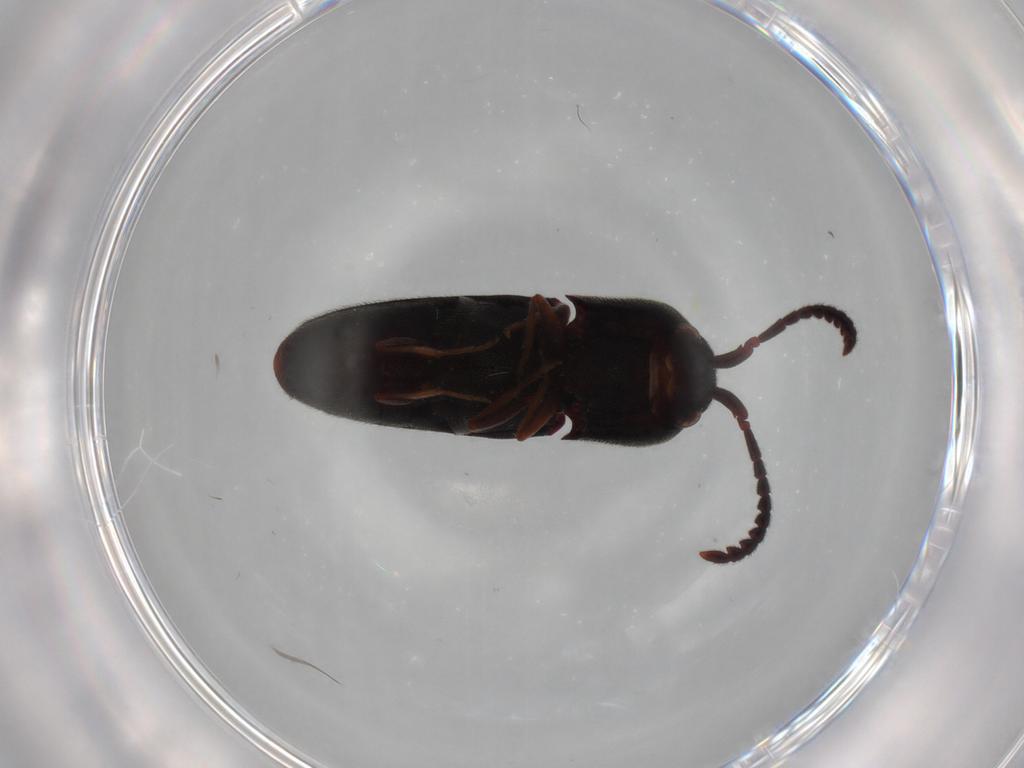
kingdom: Animalia
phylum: Arthropoda
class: Insecta
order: Coleoptera
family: Eucnemidae
